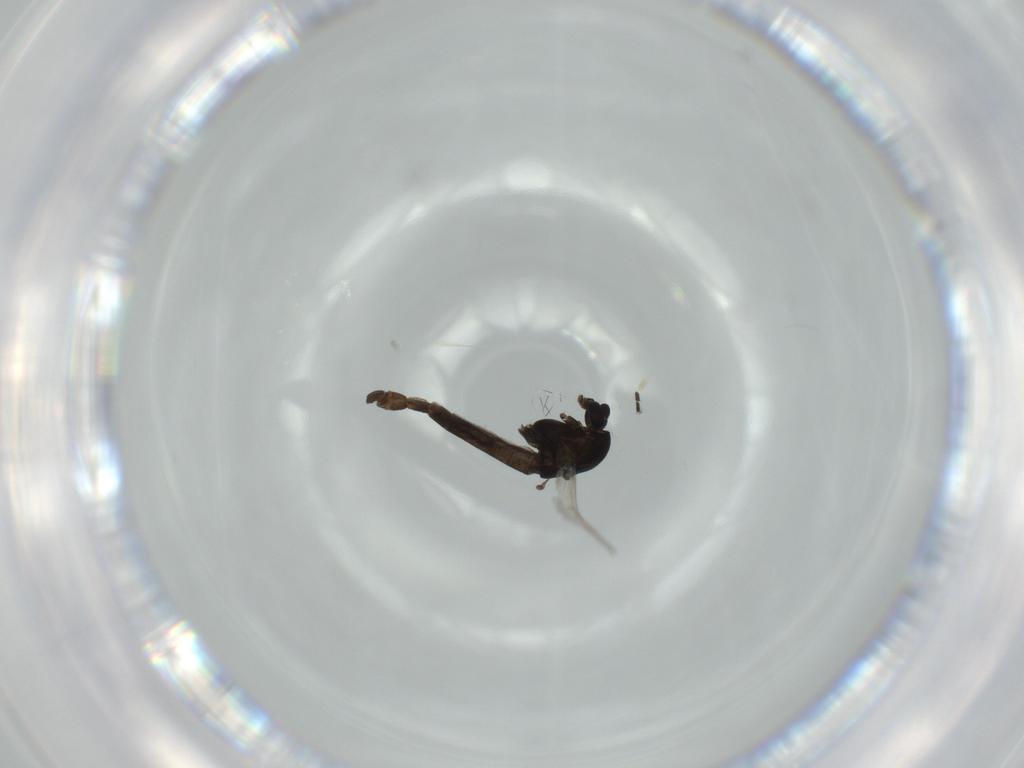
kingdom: Animalia
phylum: Arthropoda
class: Insecta
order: Diptera
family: Chironomidae
